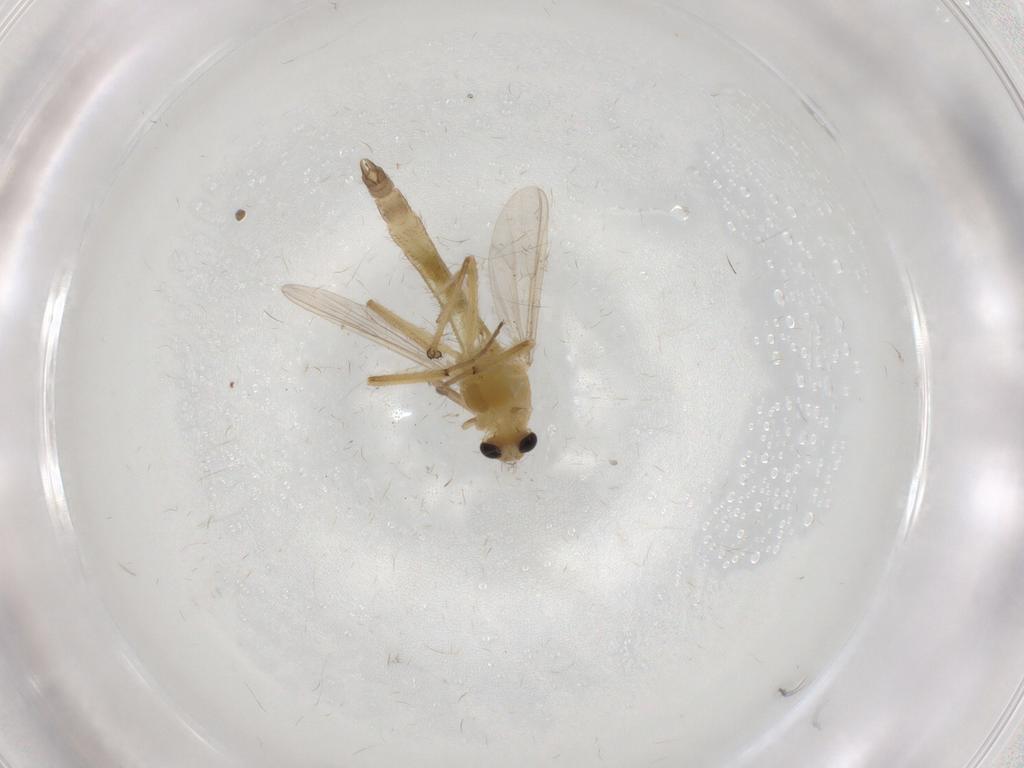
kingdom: Animalia
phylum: Arthropoda
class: Insecta
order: Diptera
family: Chironomidae
